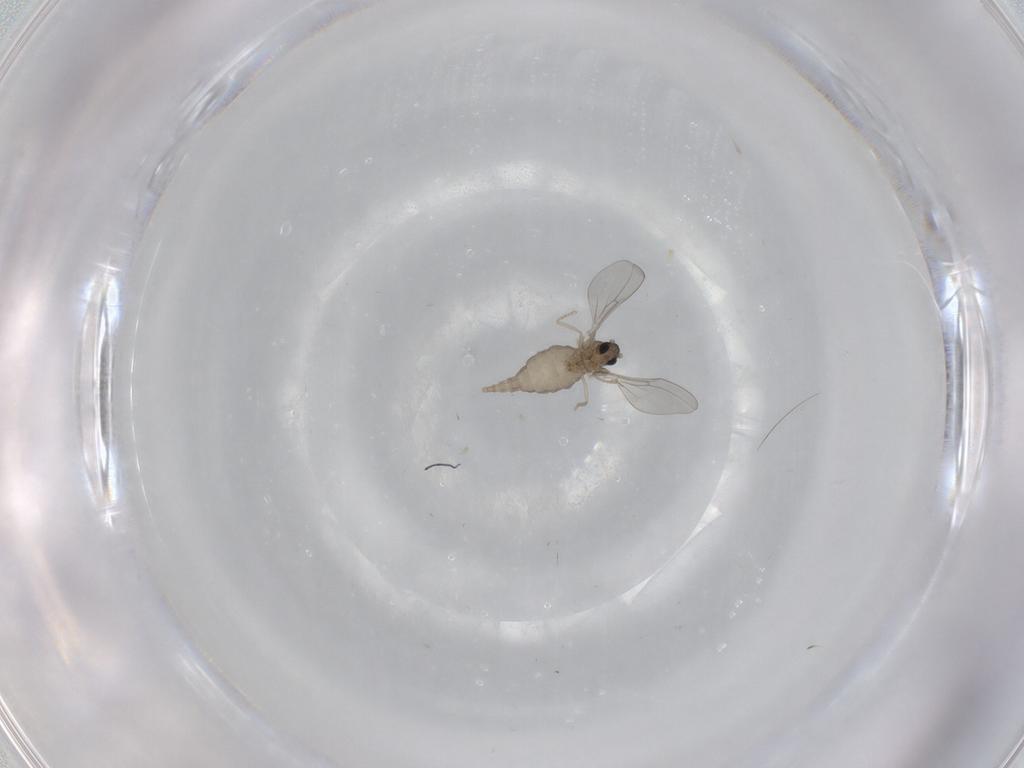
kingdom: Animalia
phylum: Arthropoda
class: Insecta
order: Diptera
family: Cecidomyiidae
